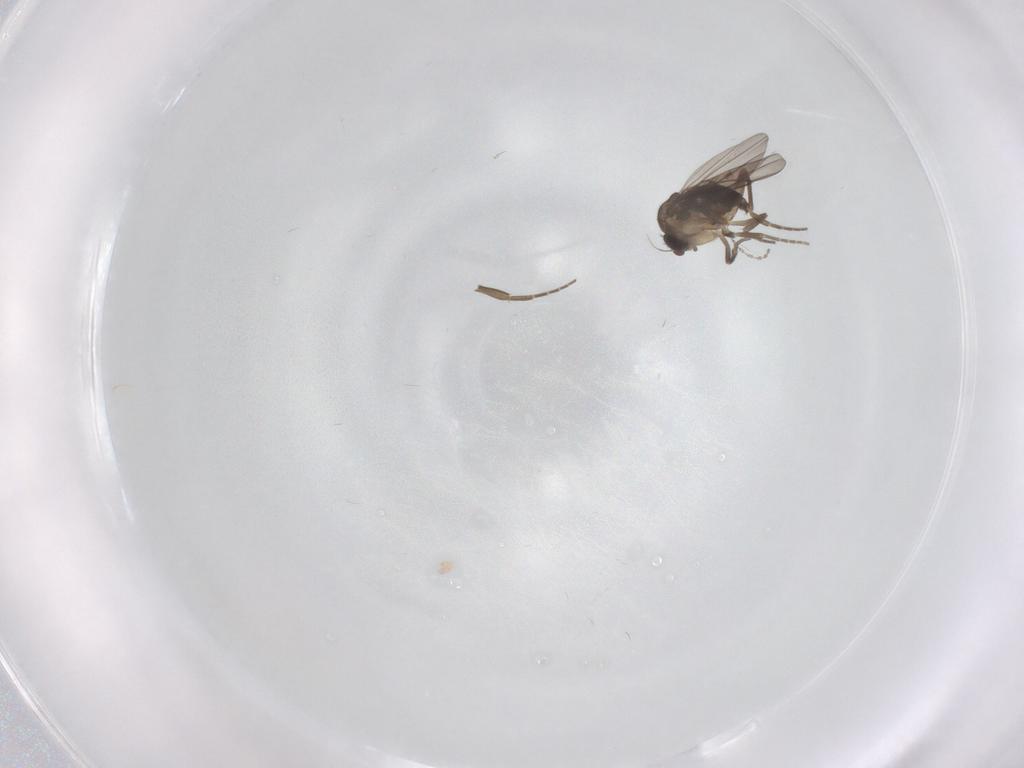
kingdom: Animalia
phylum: Arthropoda
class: Insecta
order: Diptera
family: Phoridae
